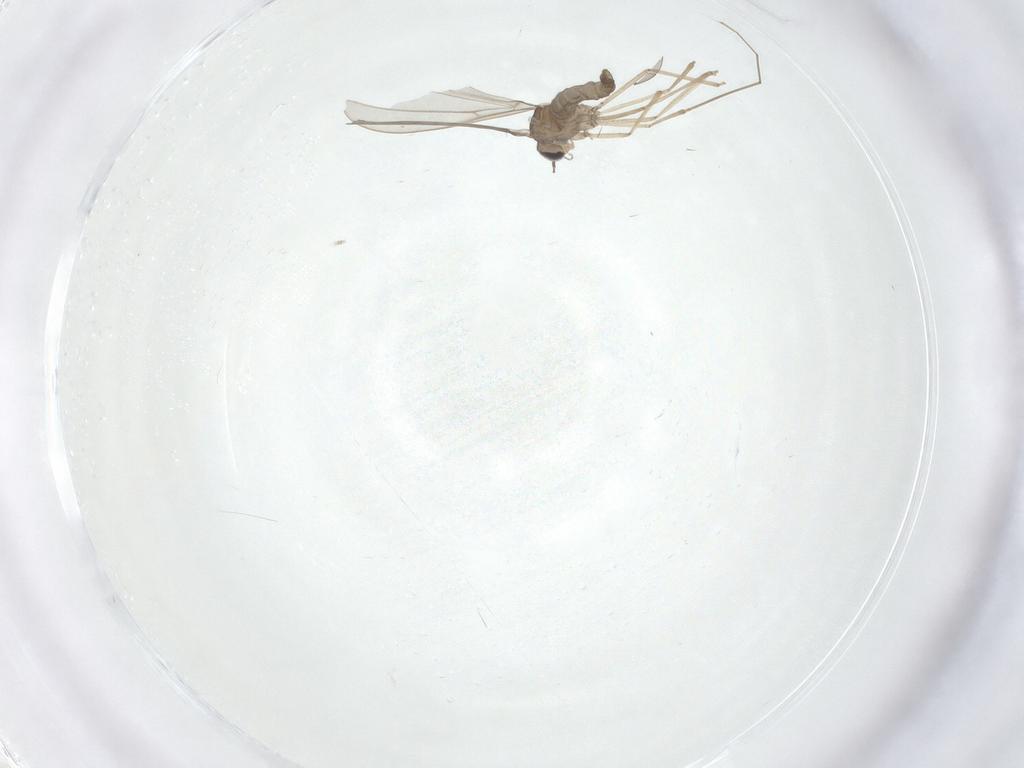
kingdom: Animalia
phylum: Arthropoda
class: Insecta
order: Diptera
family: Cecidomyiidae
